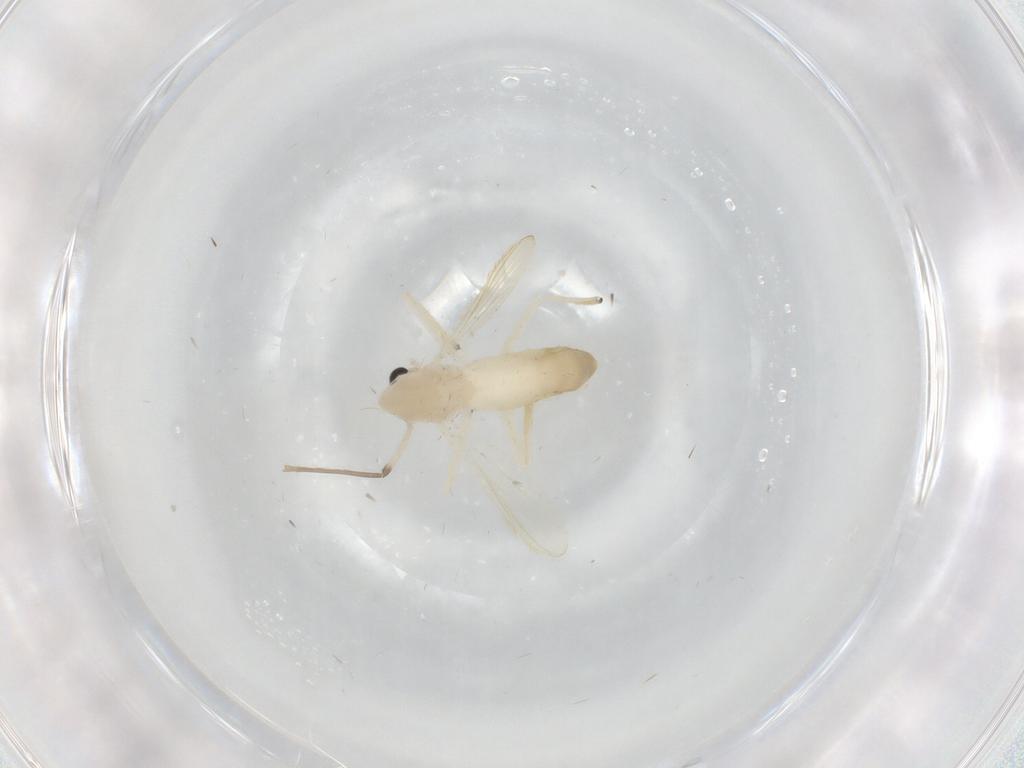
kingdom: Animalia
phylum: Arthropoda
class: Insecta
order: Diptera
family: Chironomidae
